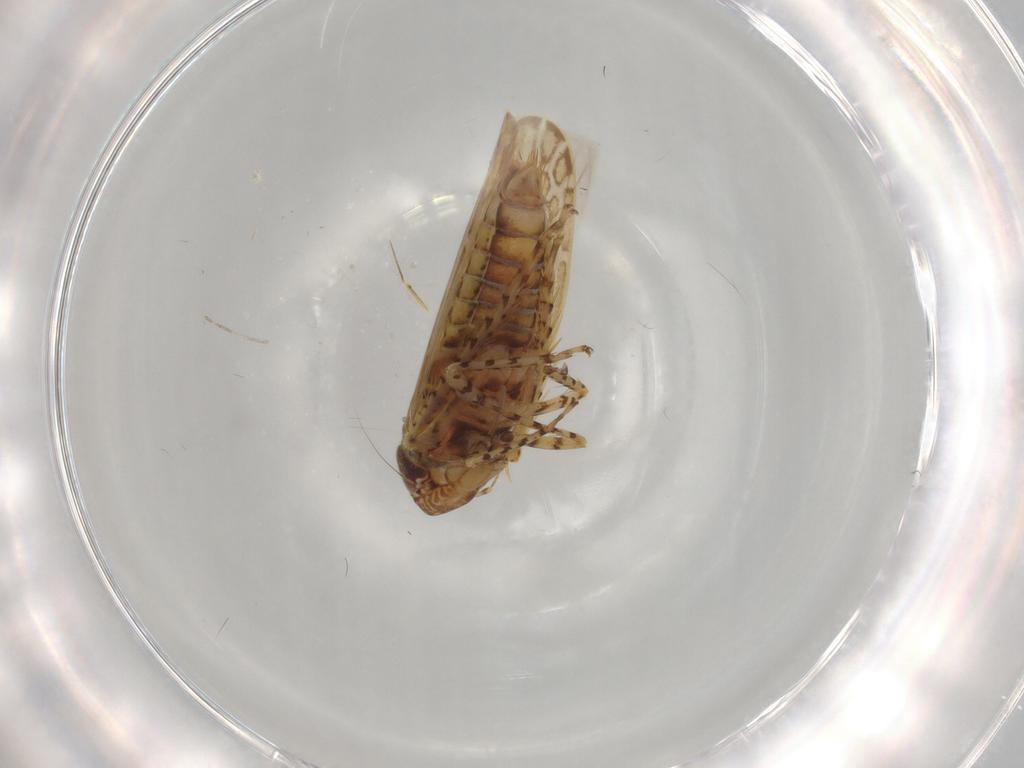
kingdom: Animalia
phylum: Arthropoda
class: Insecta
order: Hemiptera
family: Cicadellidae
